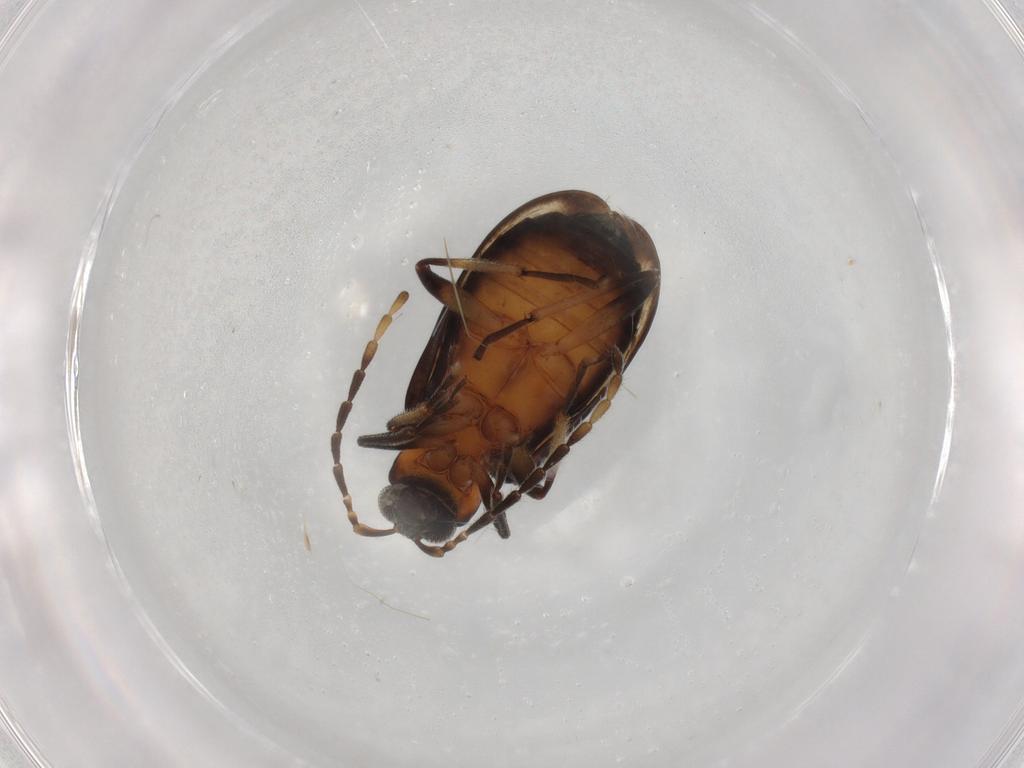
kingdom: Animalia
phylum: Arthropoda
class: Insecta
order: Coleoptera
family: Chrysomelidae
